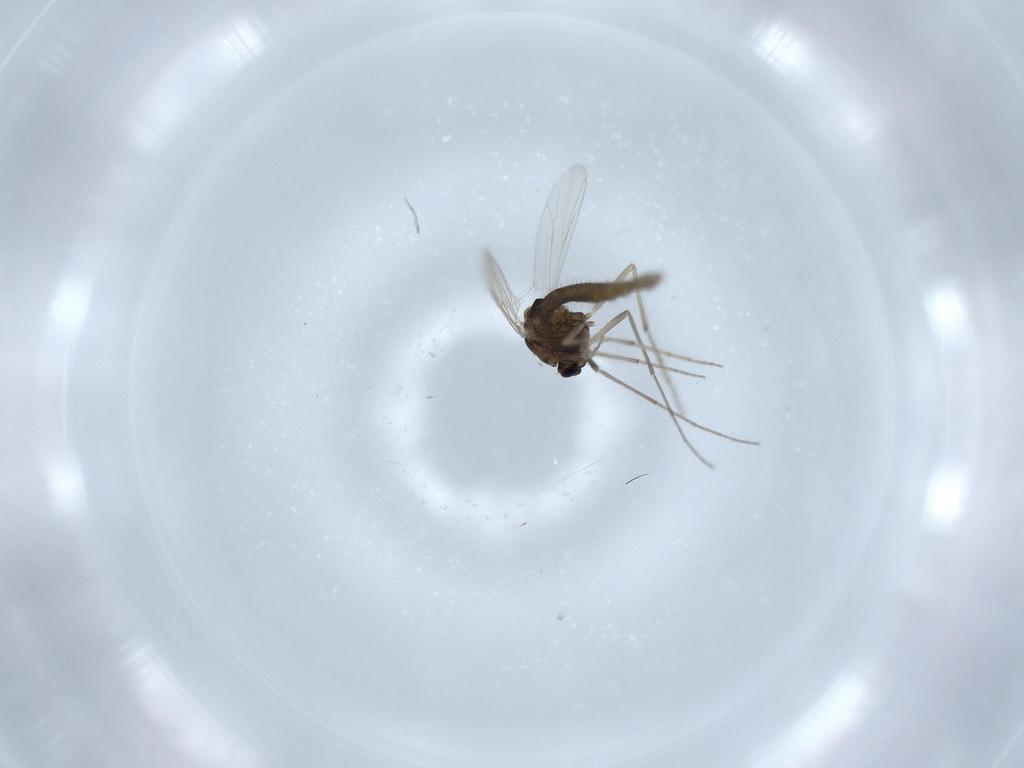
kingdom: Animalia
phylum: Arthropoda
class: Insecta
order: Diptera
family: Chironomidae
